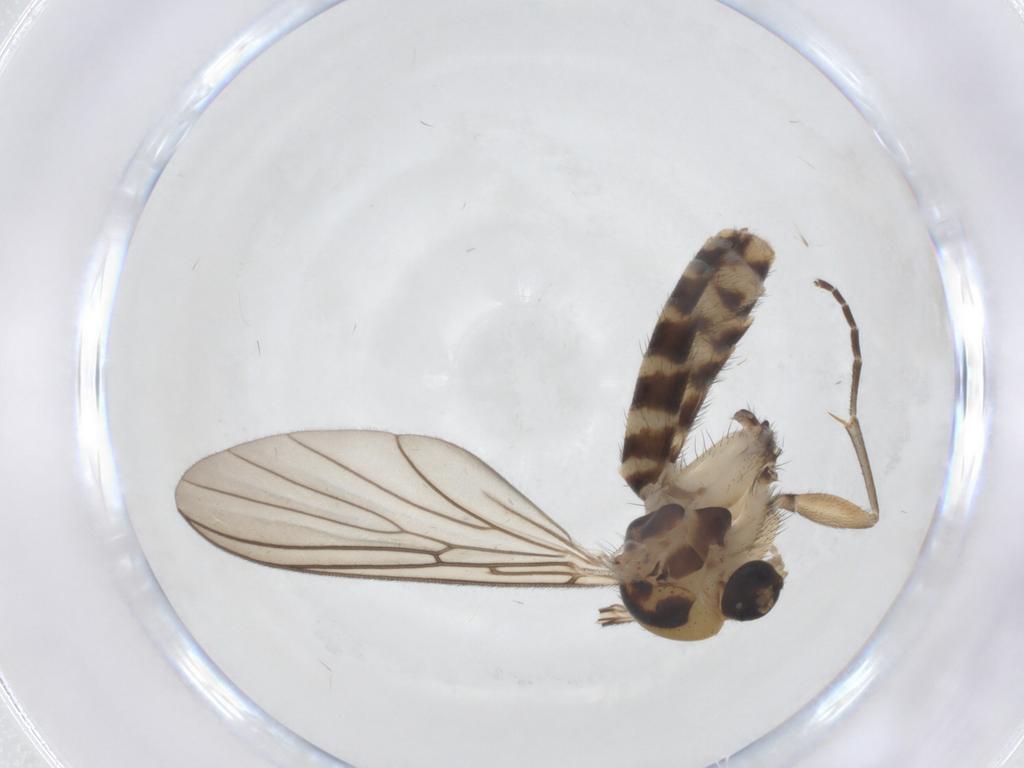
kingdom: Animalia
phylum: Arthropoda
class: Insecta
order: Diptera
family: Mycetophilidae
